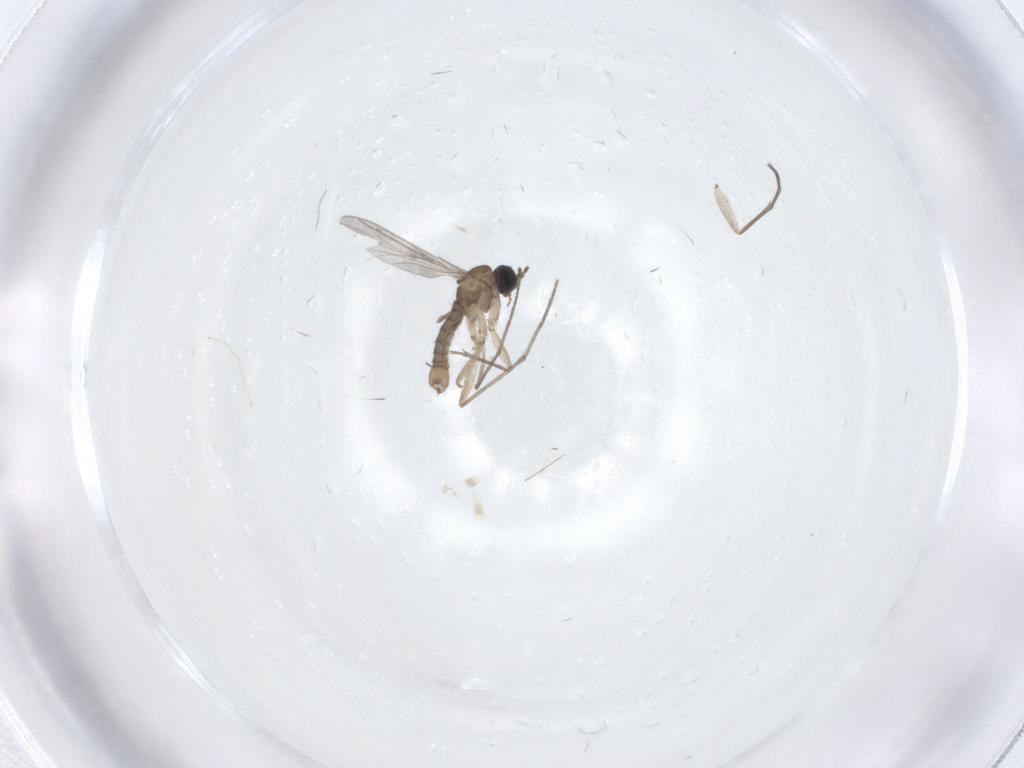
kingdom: Animalia
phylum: Arthropoda
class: Insecta
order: Diptera
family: Sciaridae
